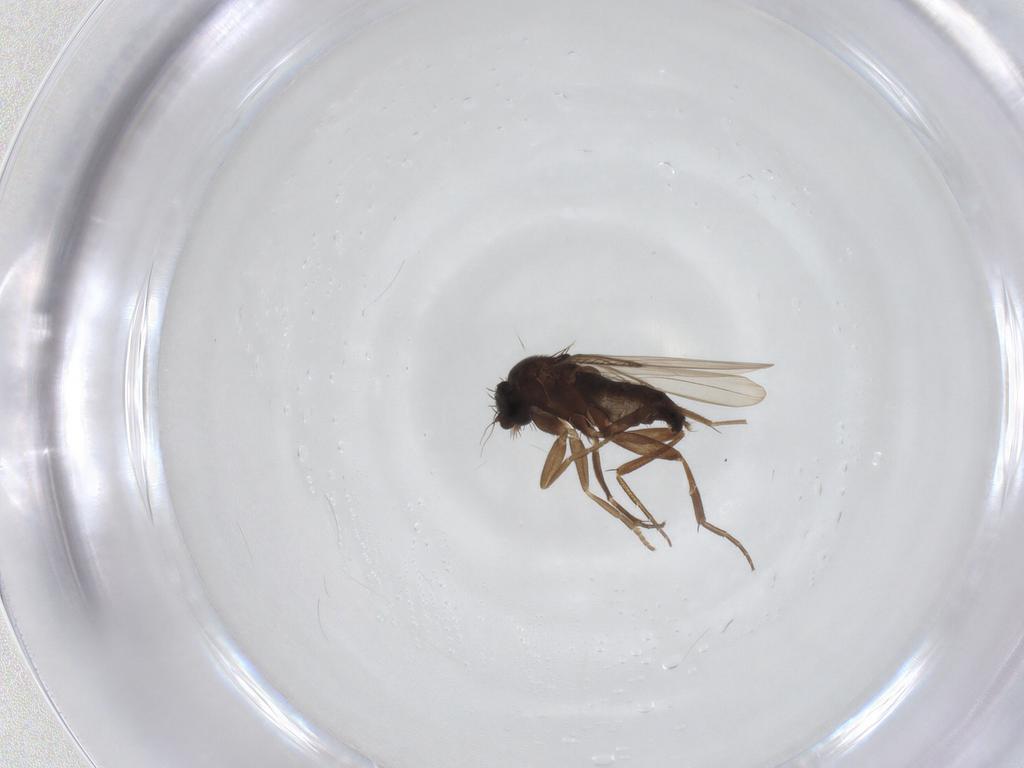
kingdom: Animalia
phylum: Arthropoda
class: Insecta
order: Diptera
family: Phoridae
